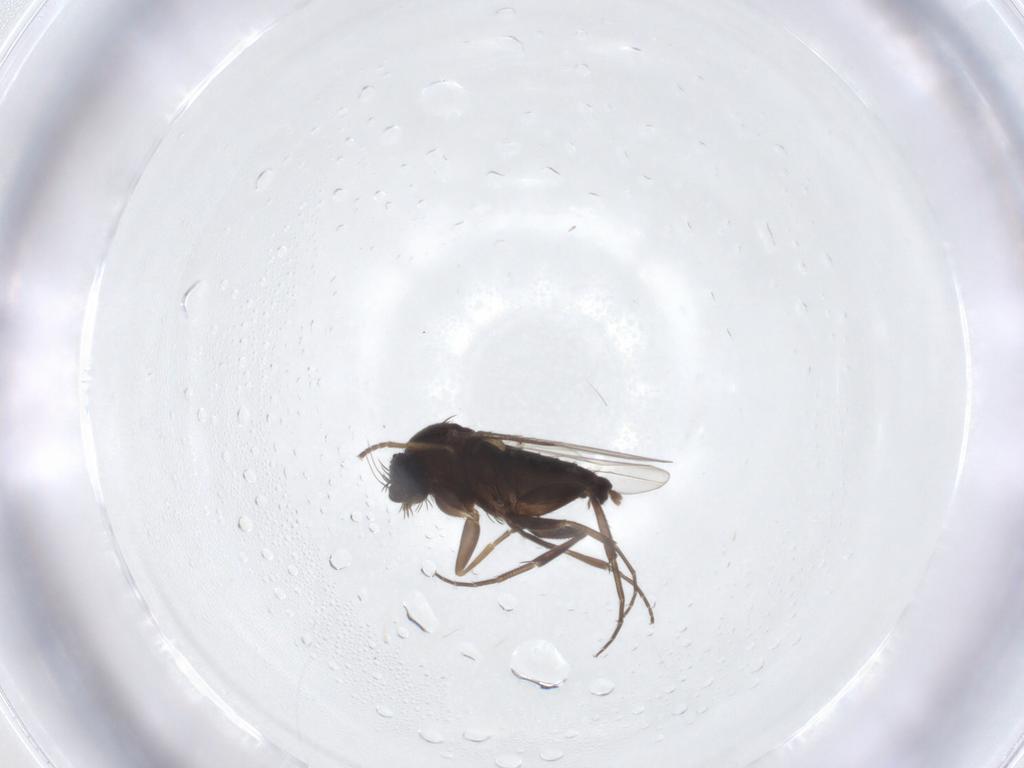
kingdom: Animalia
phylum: Arthropoda
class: Insecta
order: Diptera
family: Phoridae
